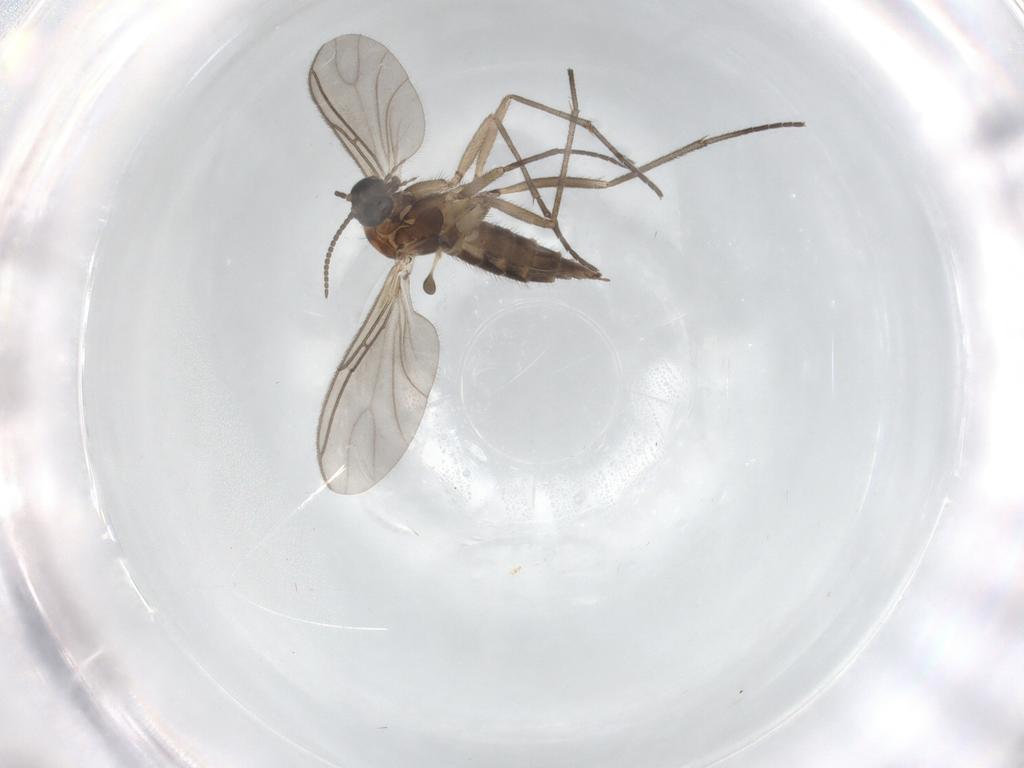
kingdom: Animalia
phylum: Arthropoda
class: Insecta
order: Diptera
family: Sciaridae
